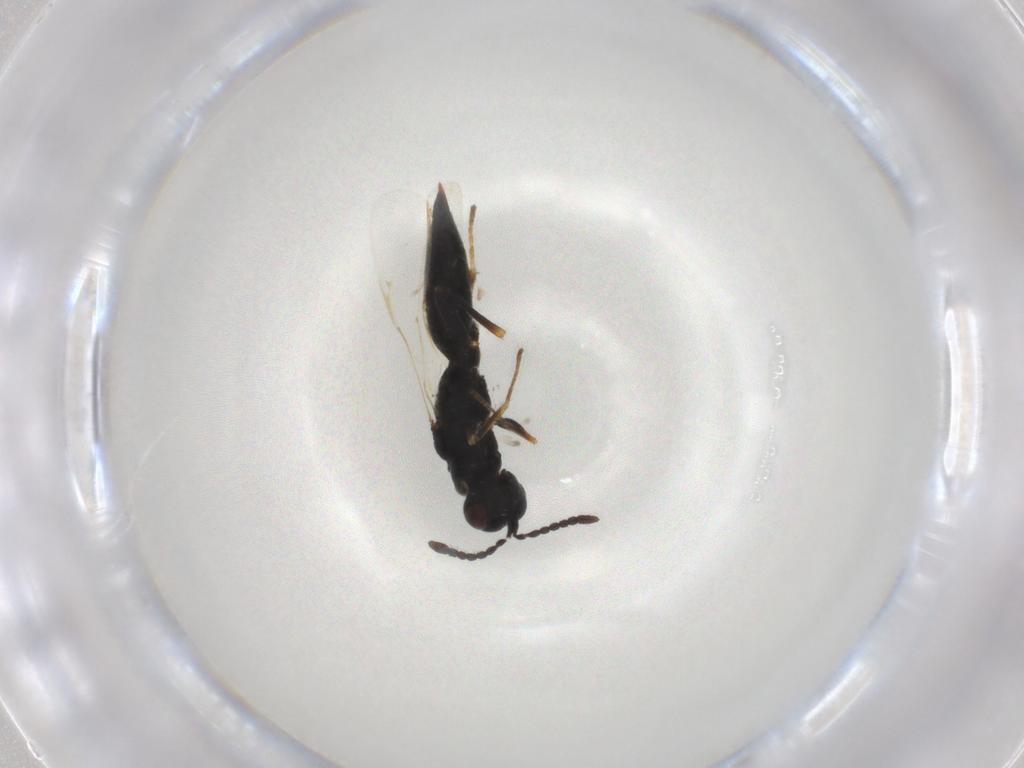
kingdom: Animalia
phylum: Arthropoda
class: Insecta
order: Hymenoptera
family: Eurytomidae
